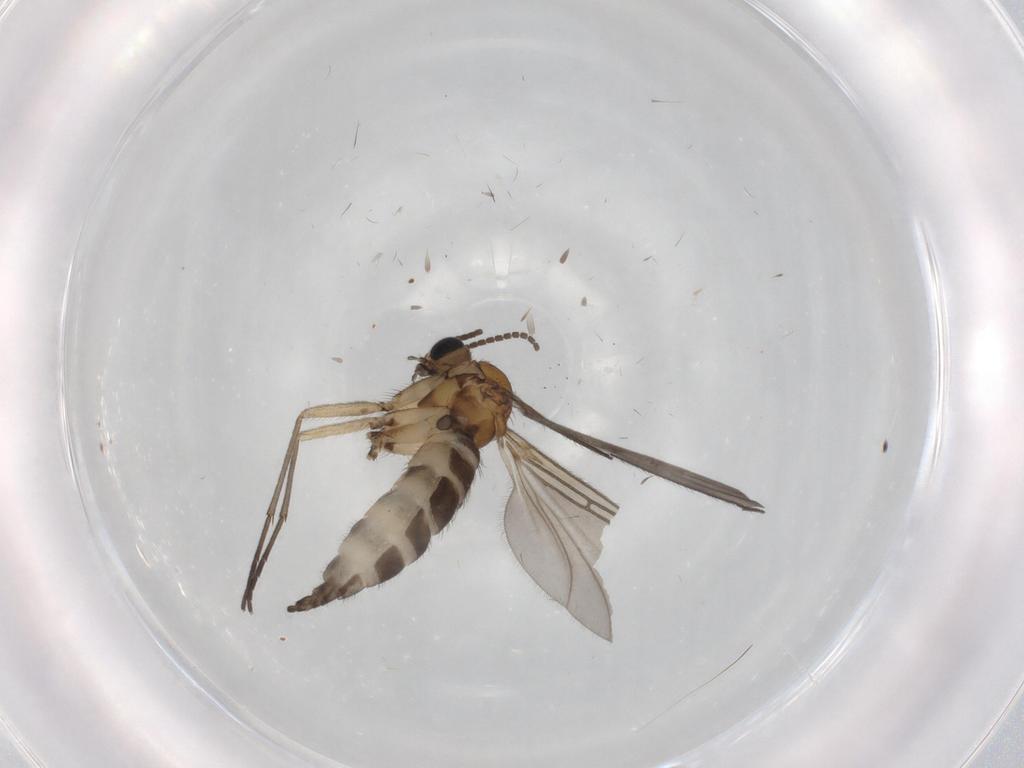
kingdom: Animalia
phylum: Arthropoda
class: Insecta
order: Diptera
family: Sciaridae
